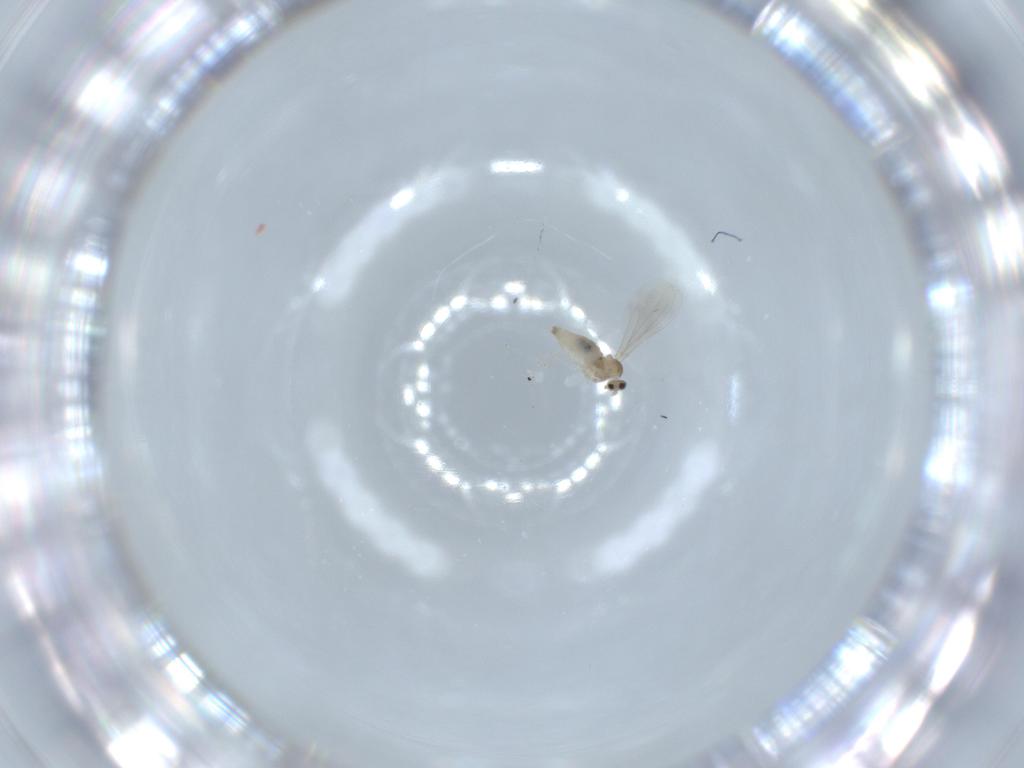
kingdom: Animalia
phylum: Arthropoda
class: Insecta
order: Diptera
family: Cecidomyiidae
